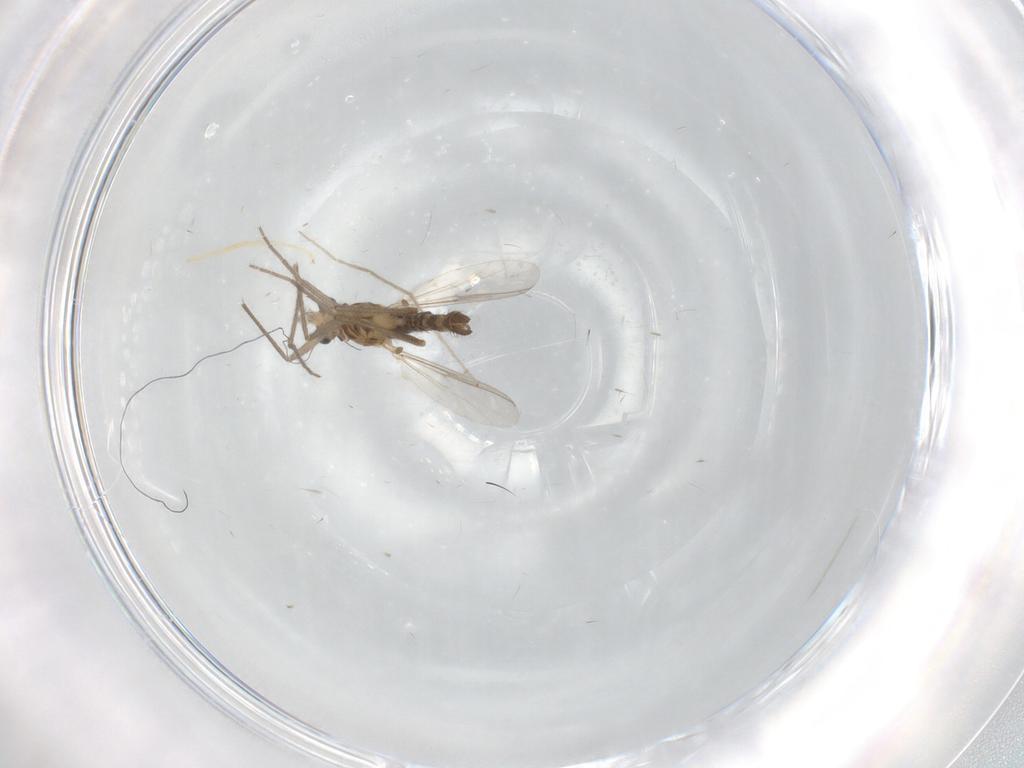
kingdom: Animalia
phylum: Arthropoda
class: Insecta
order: Diptera
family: Chironomidae
